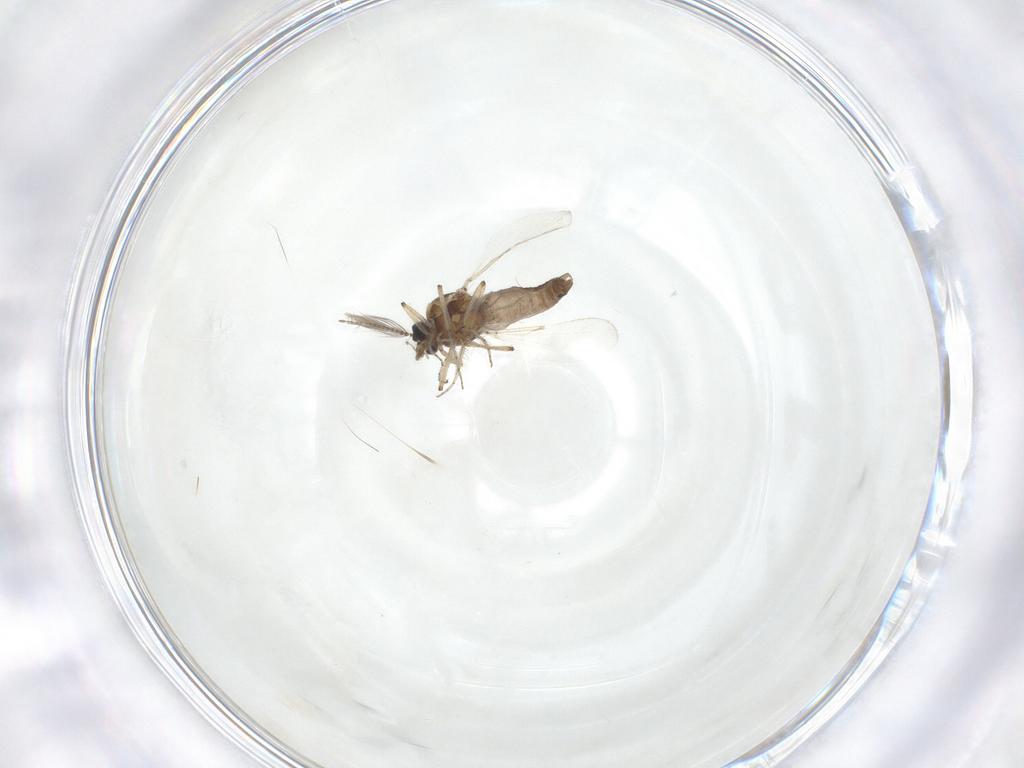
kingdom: Animalia
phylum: Arthropoda
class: Insecta
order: Diptera
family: Ceratopogonidae
